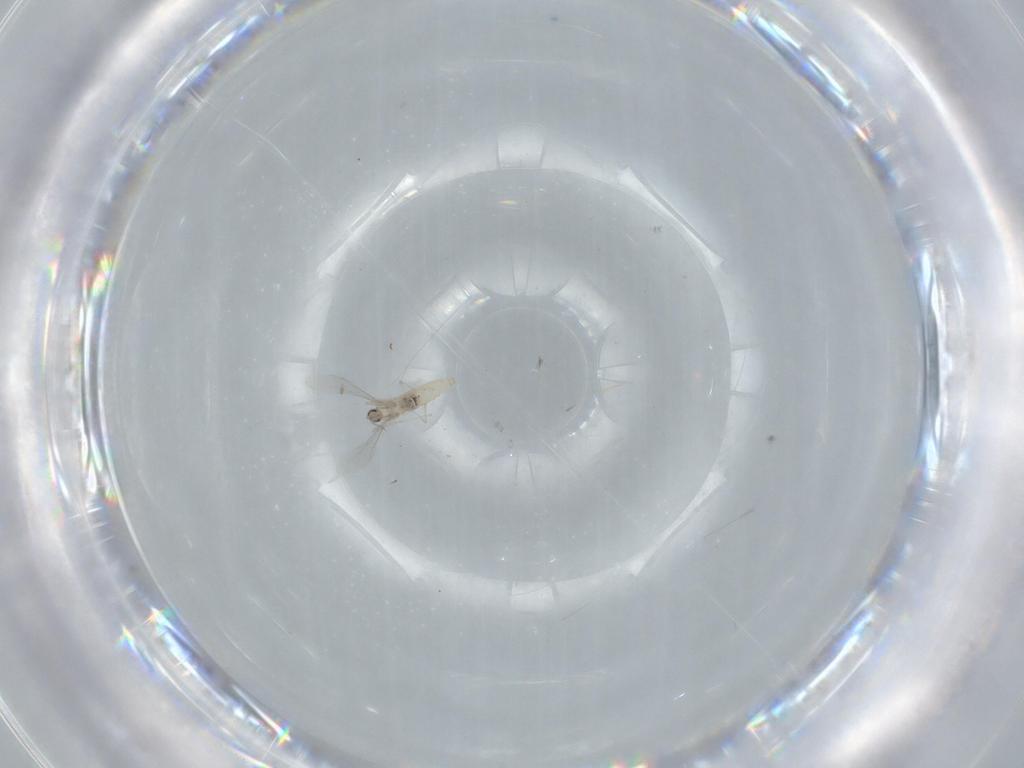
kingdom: Animalia
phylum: Arthropoda
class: Insecta
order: Diptera
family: Cecidomyiidae
